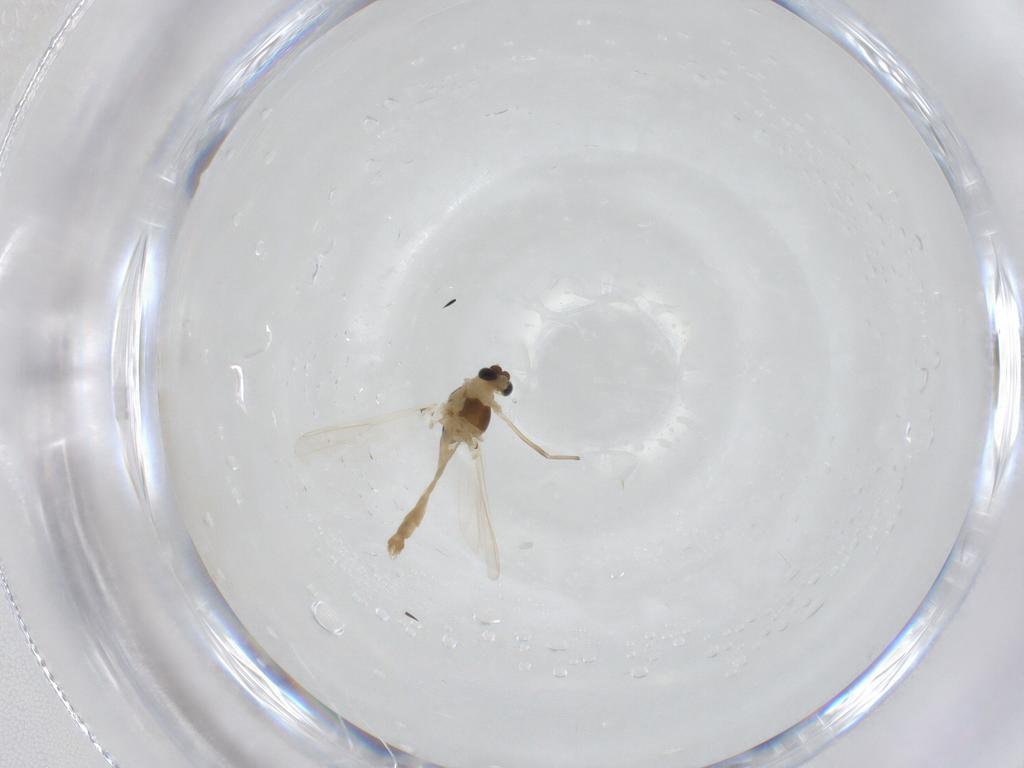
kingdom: Animalia
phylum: Arthropoda
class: Insecta
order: Diptera
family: Chironomidae
